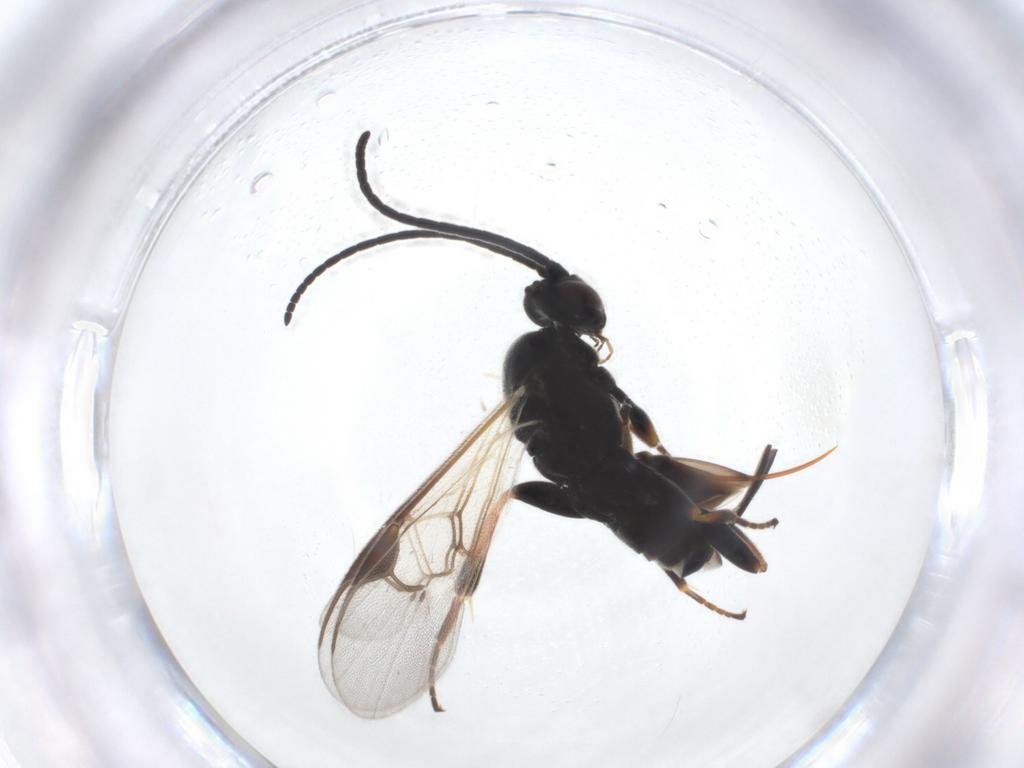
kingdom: Animalia
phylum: Arthropoda
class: Insecta
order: Hymenoptera
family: Braconidae
